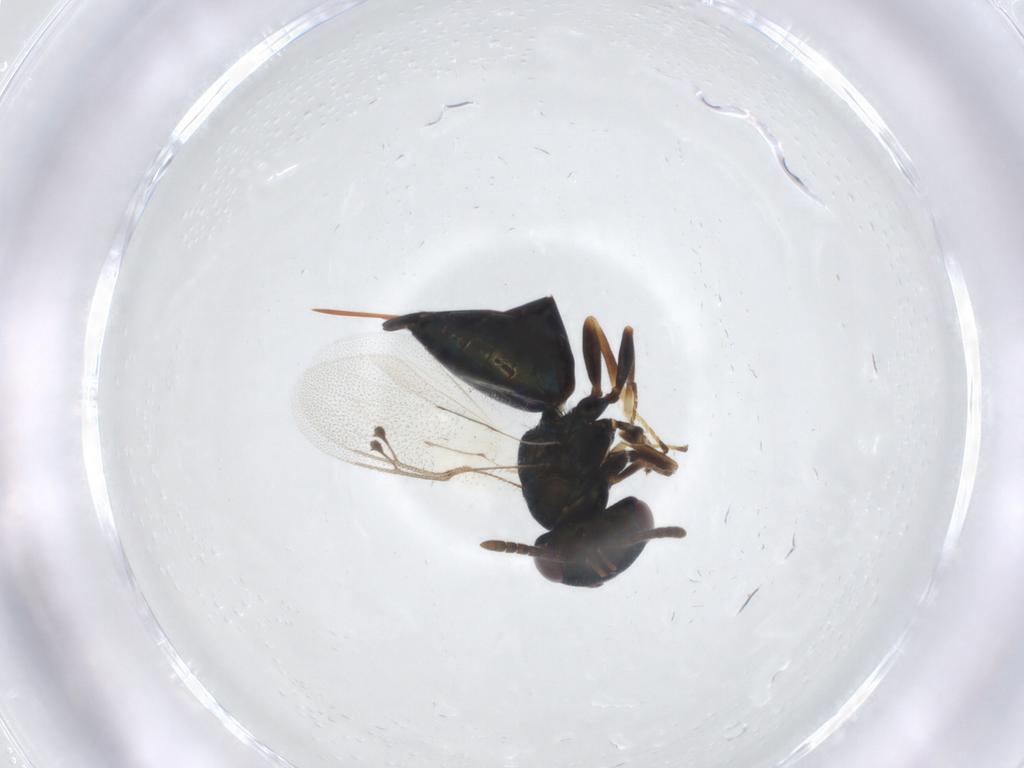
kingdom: Animalia
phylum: Arthropoda
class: Insecta
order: Hymenoptera
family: Pteromalidae
